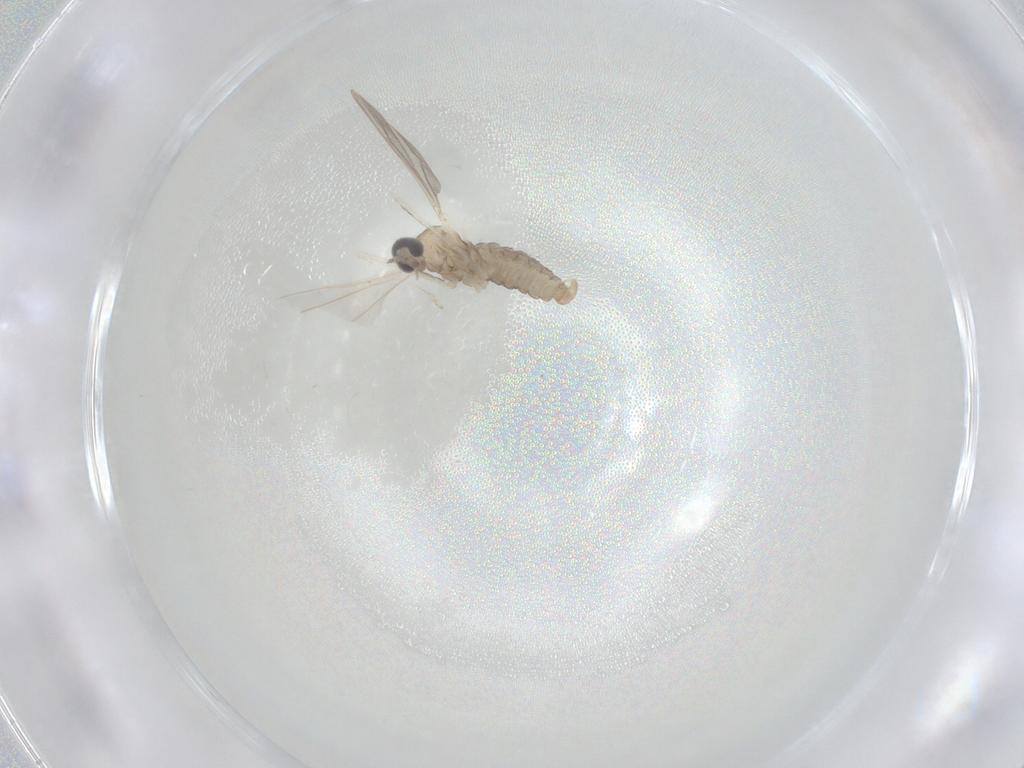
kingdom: Animalia
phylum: Arthropoda
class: Insecta
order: Diptera
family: Cecidomyiidae
